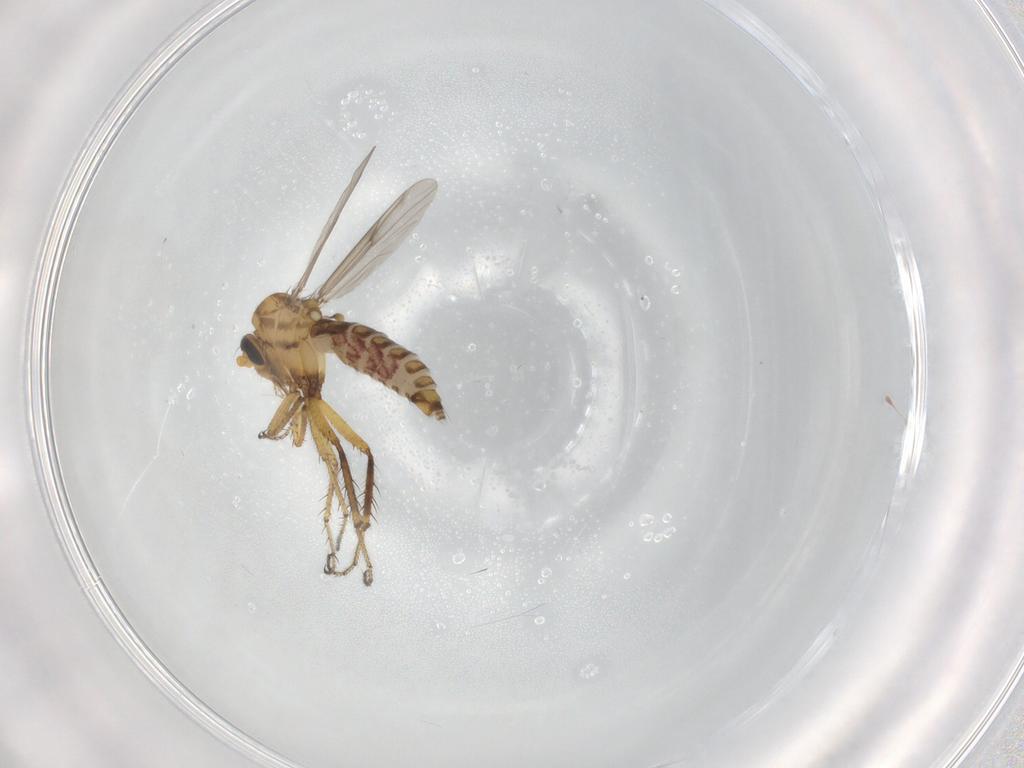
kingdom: Animalia
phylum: Arthropoda
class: Insecta
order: Diptera
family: Ceratopogonidae
